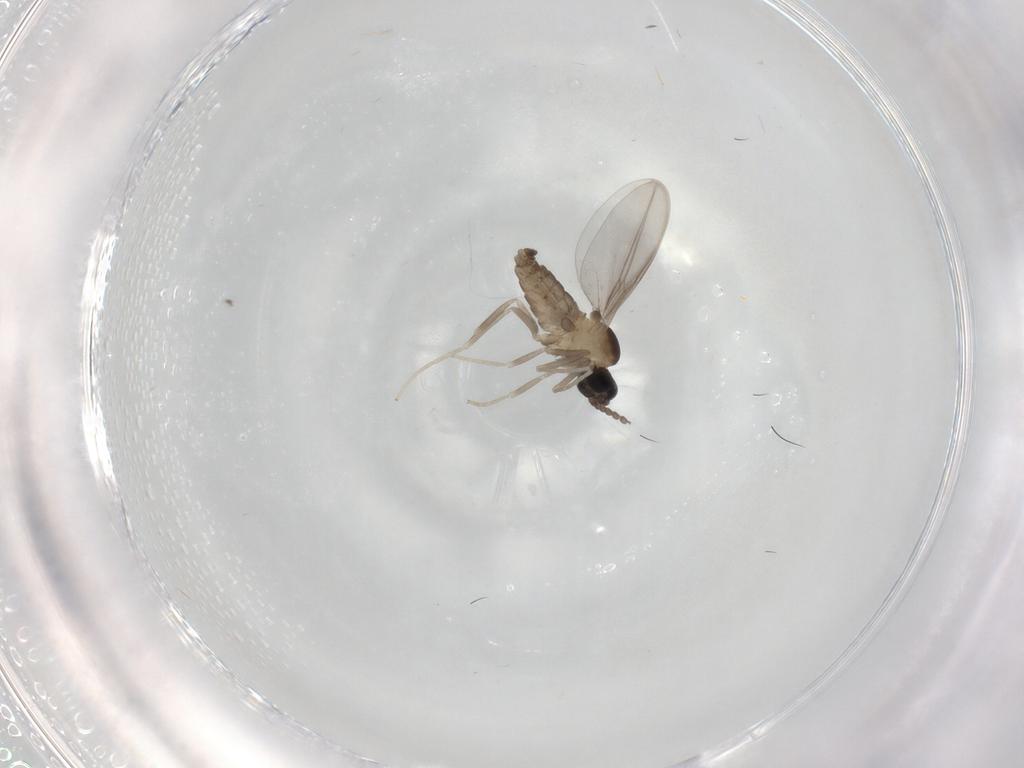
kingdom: Animalia
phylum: Arthropoda
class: Insecta
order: Diptera
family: Cecidomyiidae
